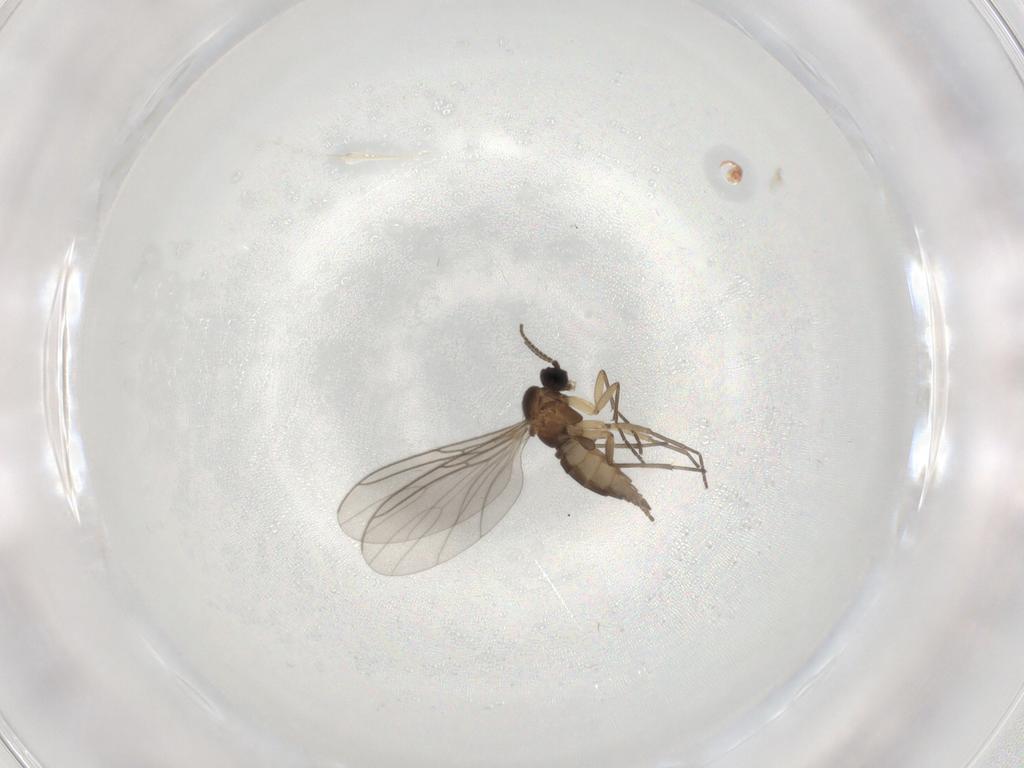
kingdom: Animalia
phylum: Arthropoda
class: Insecta
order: Diptera
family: Sciaridae
